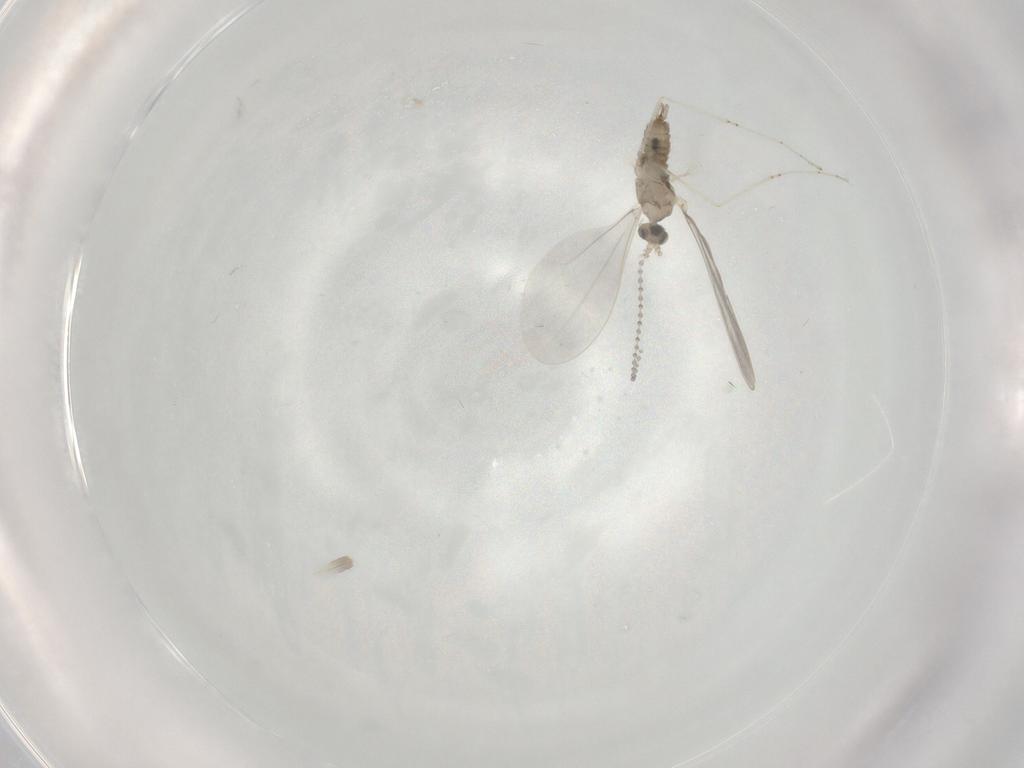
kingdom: Animalia
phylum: Arthropoda
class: Insecta
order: Diptera
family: Cecidomyiidae
